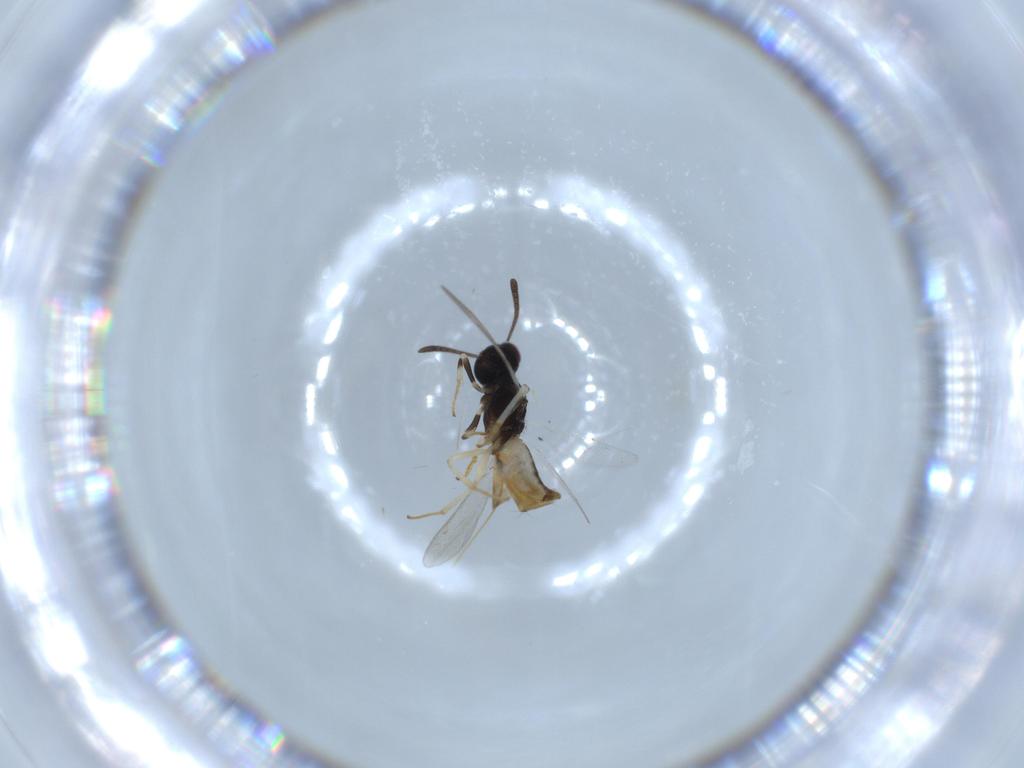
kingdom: Animalia
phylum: Arthropoda
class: Insecta
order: Hymenoptera
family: Eupelmidae
